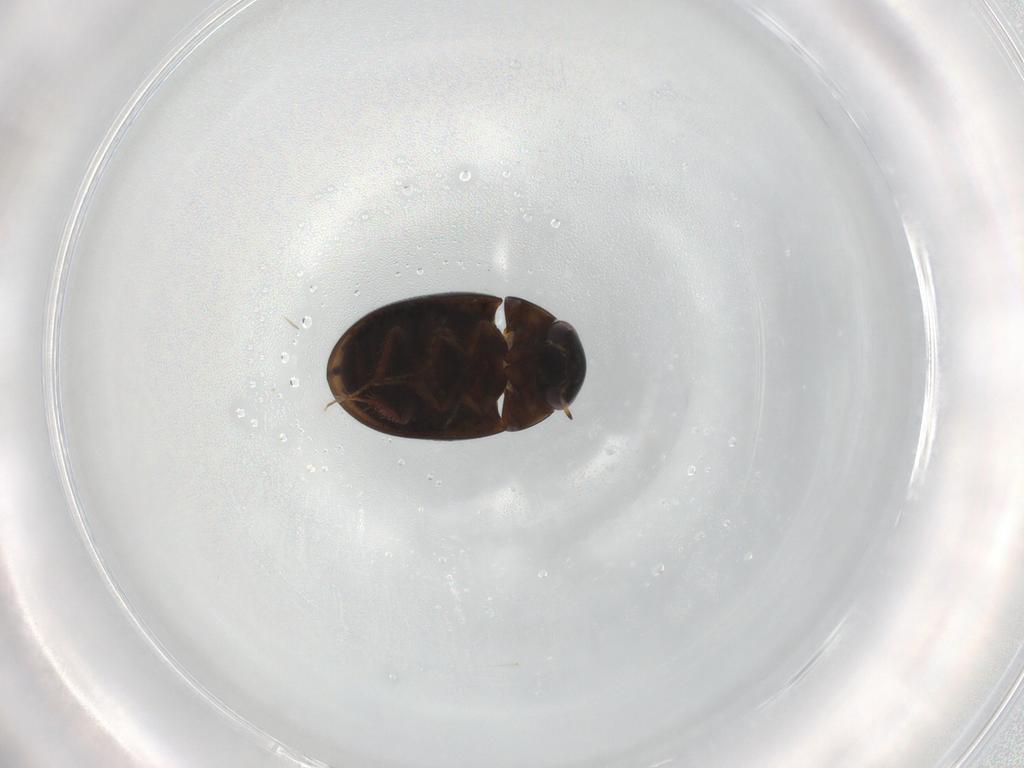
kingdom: Animalia
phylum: Arthropoda
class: Insecta
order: Coleoptera
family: Hydrophilidae
